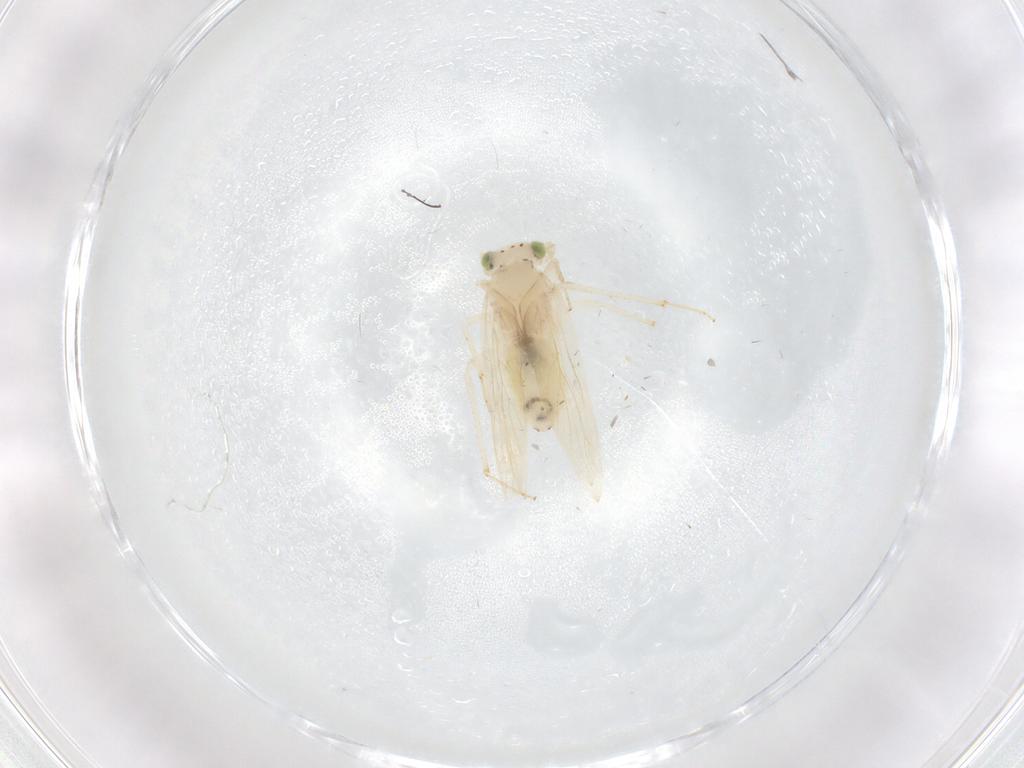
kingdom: Animalia
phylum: Arthropoda
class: Insecta
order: Psocodea
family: Lepidopsocidae
